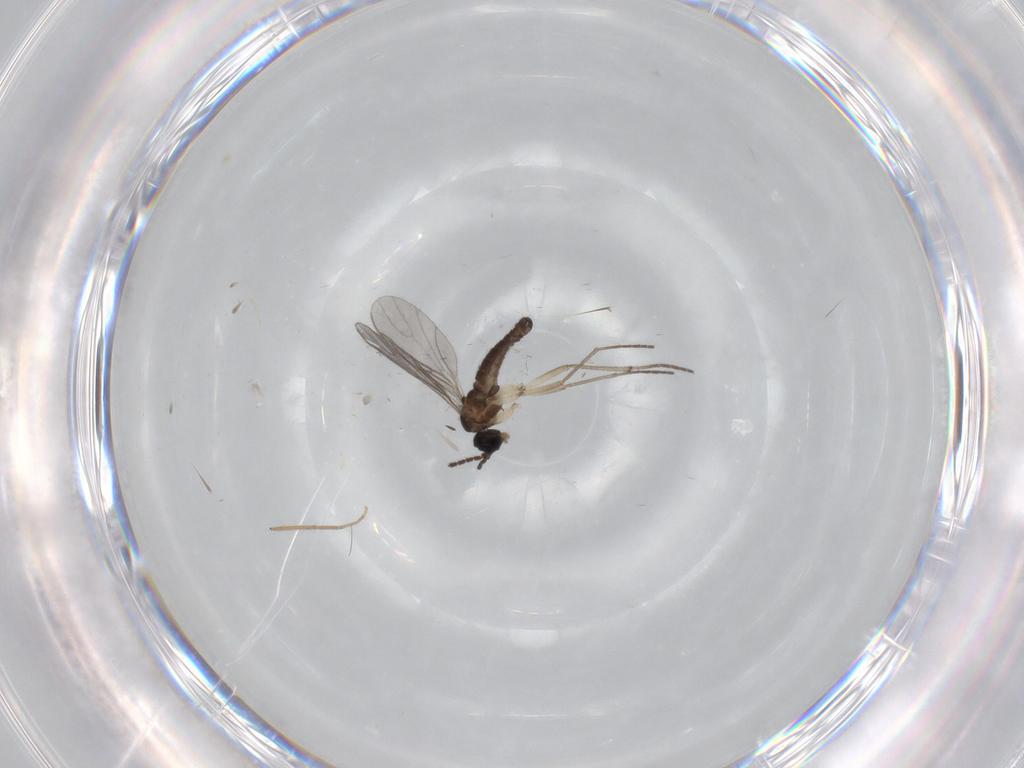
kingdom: Animalia
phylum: Arthropoda
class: Insecta
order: Diptera
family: Sciaridae
